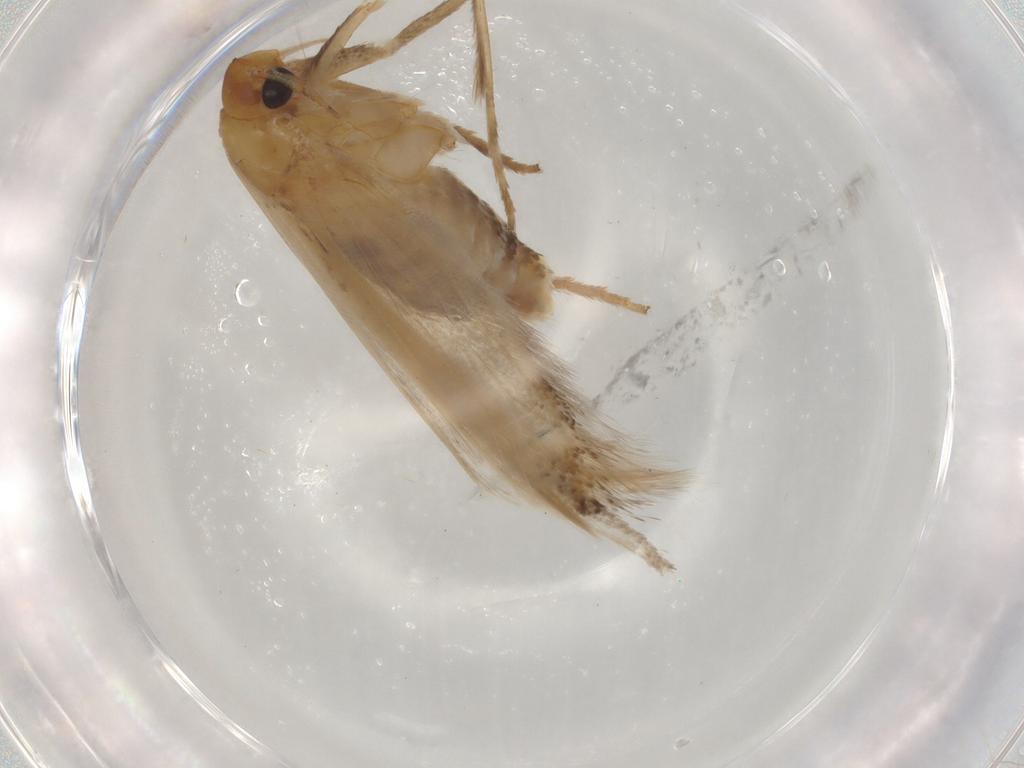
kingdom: Animalia
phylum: Arthropoda
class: Insecta
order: Lepidoptera
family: Cosmopterigidae
